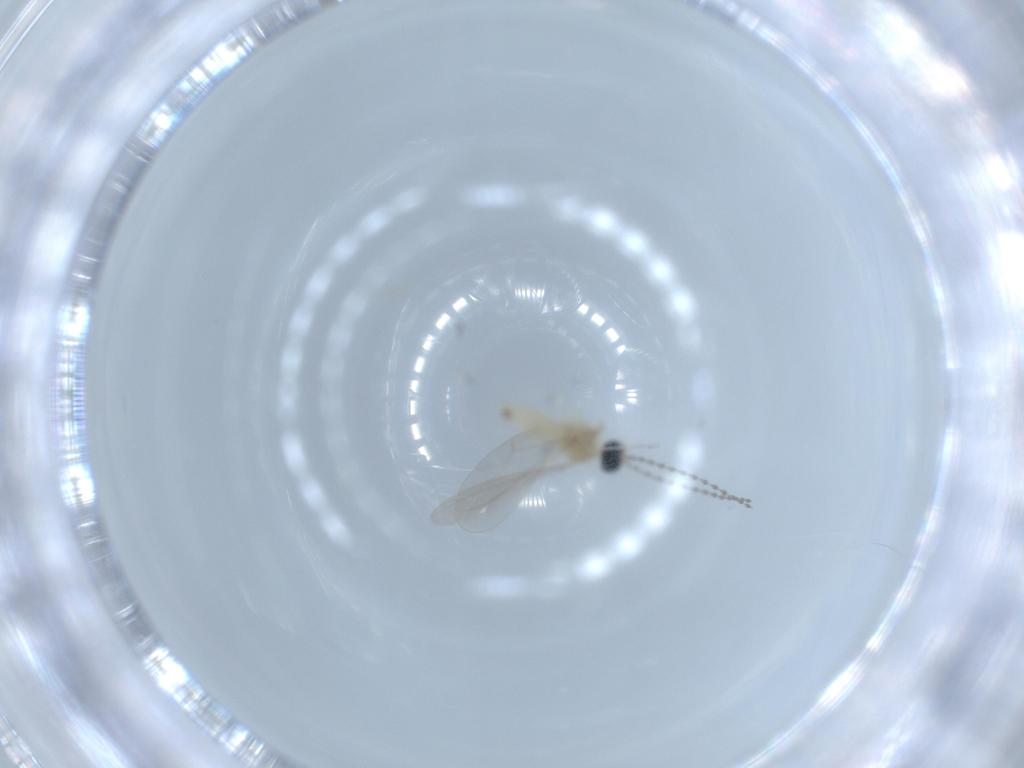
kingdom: Animalia
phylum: Arthropoda
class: Insecta
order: Diptera
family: Cecidomyiidae
